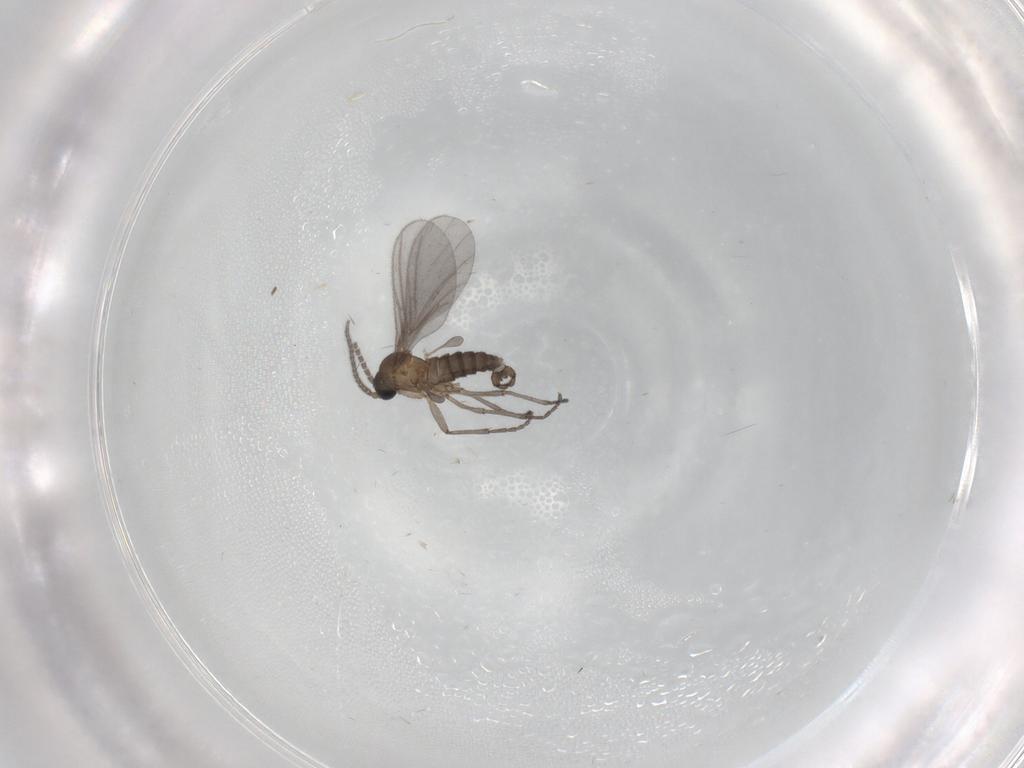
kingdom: Animalia
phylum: Arthropoda
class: Insecta
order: Diptera
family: Sciaridae
